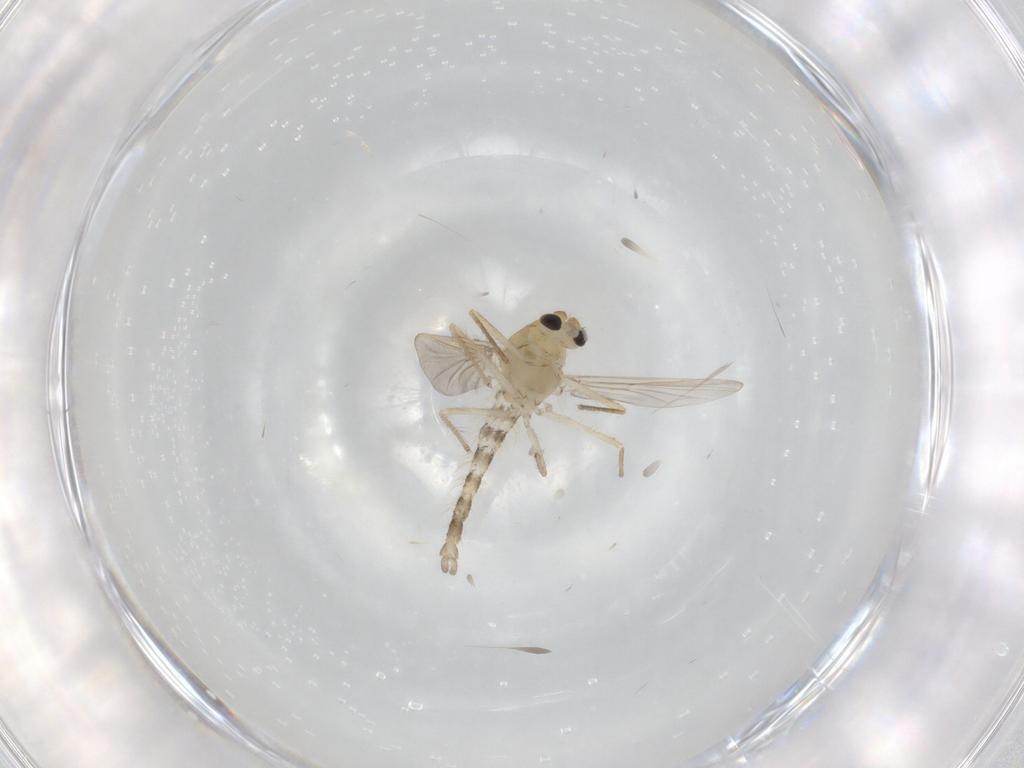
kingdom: Animalia
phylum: Arthropoda
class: Insecta
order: Diptera
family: Chironomidae
